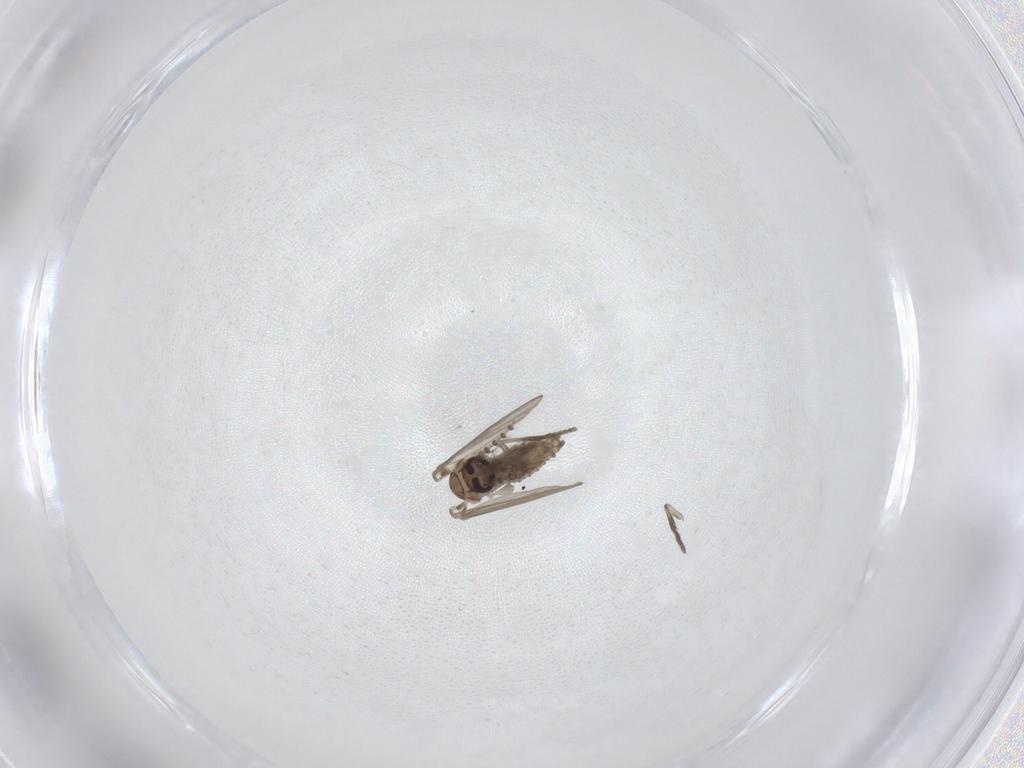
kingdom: Animalia
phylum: Arthropoda
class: Insecta
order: Diptera
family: Psychodidae
